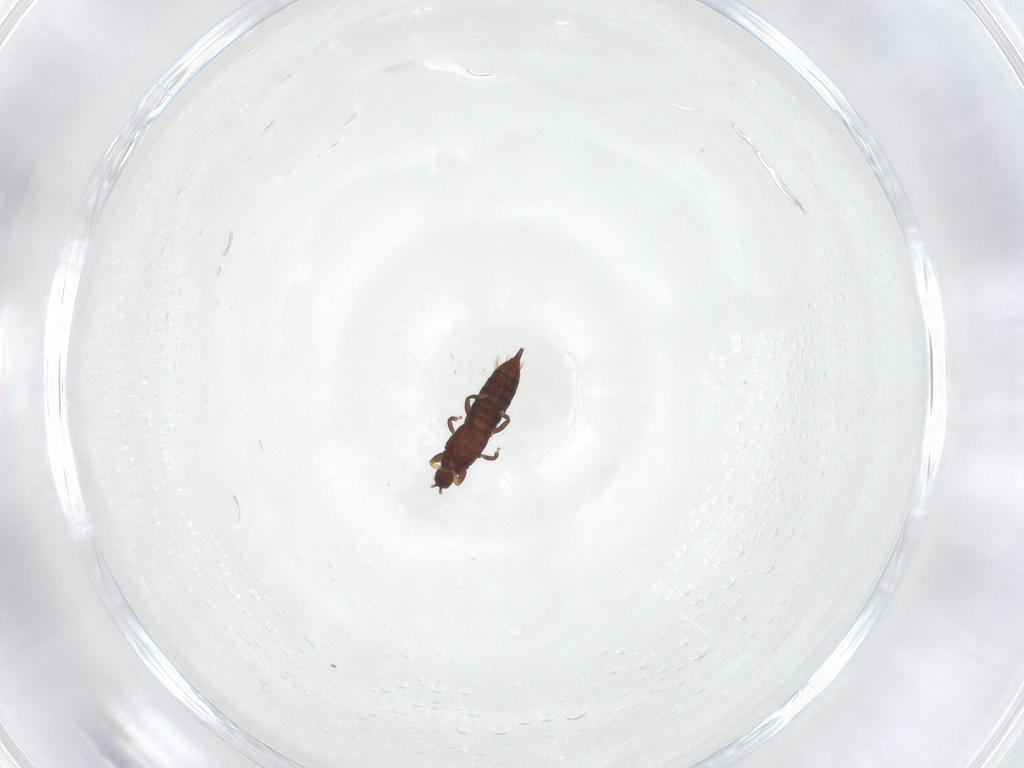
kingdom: Animalia
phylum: Arthropoda
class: Insecta
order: Thysanoptera
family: Phlaeothripidae
